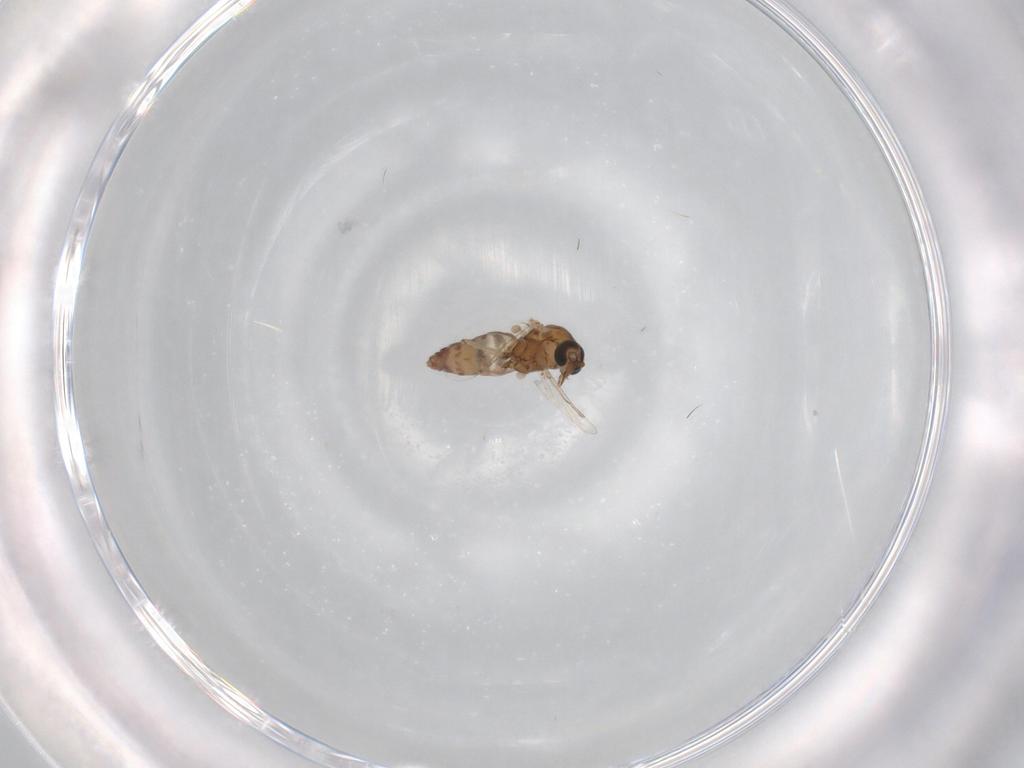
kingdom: Animalia
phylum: Arthropoda
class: Insecta
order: Diptera
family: Ceratopogonidae
